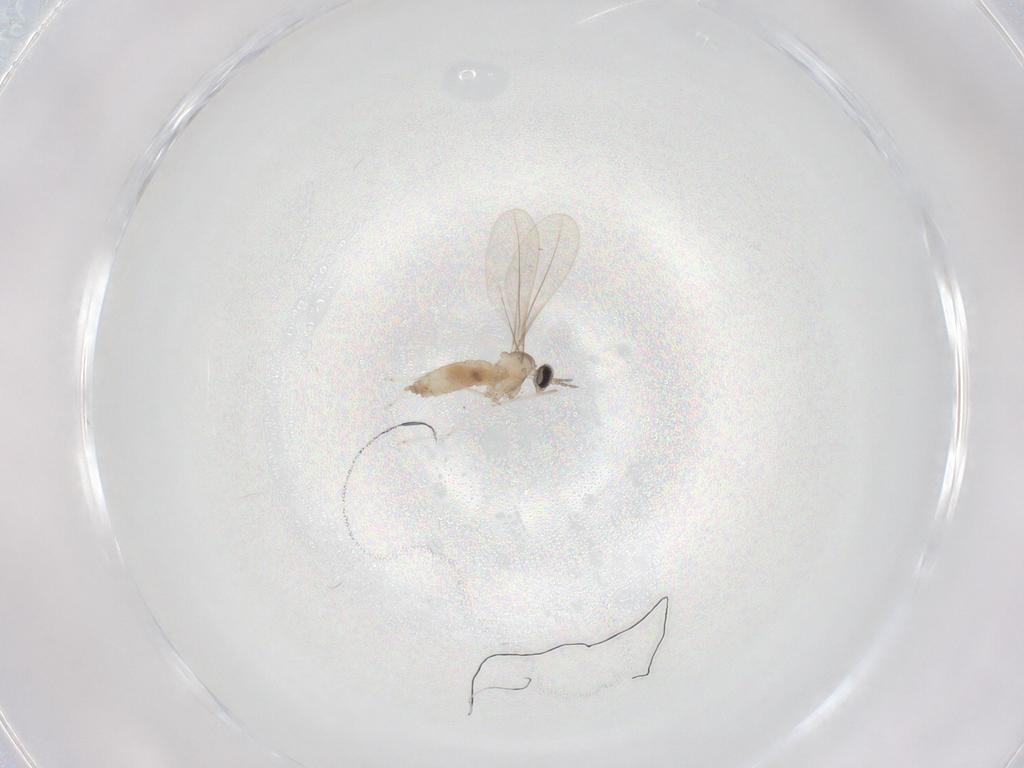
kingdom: Animalia
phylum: Arthropoda
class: Insecta
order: Diptera
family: Cecidomyiidae
